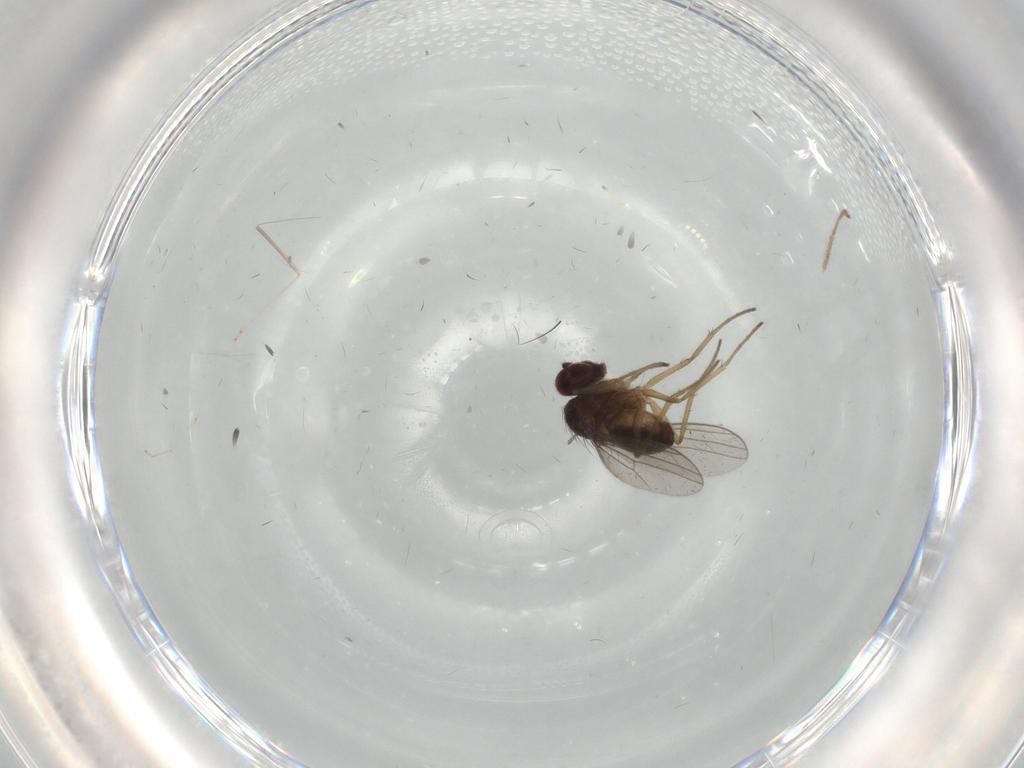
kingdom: Animalia
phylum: Arthropoda
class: Insecta
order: Diptera
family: Dolichopodidae
